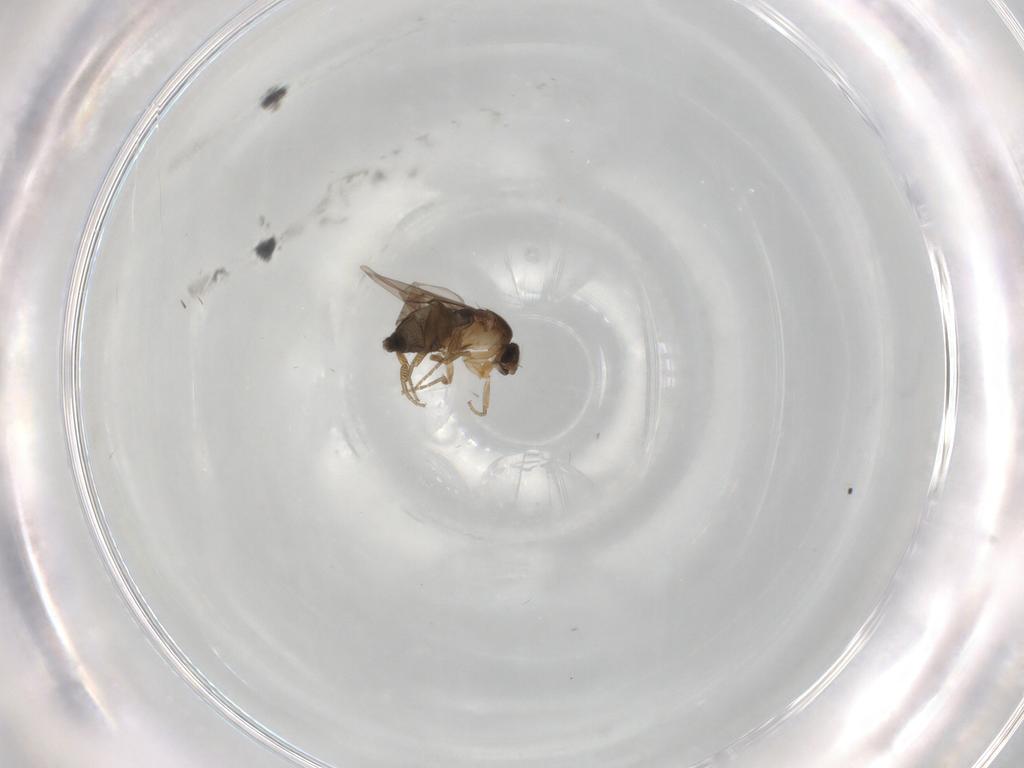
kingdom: Animalia
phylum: Arthropoda
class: Insecta
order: Diptera
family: Phoridae
